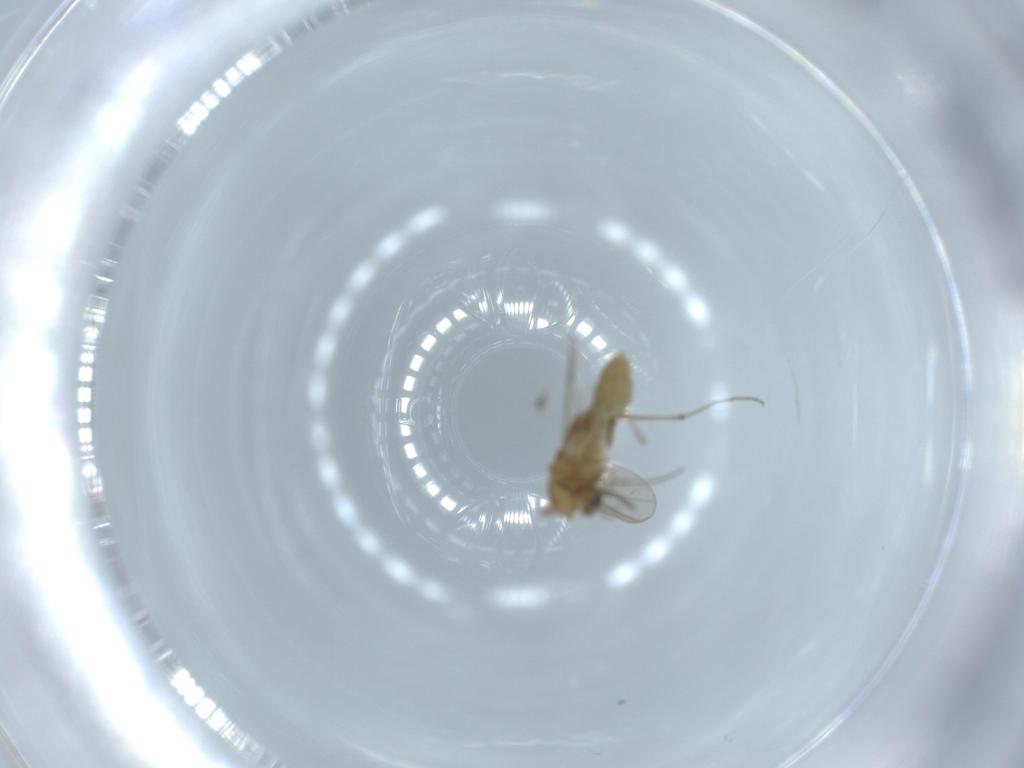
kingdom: Animalia
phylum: Arthropoda
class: Insecta
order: Diptera
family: Chironomidae
